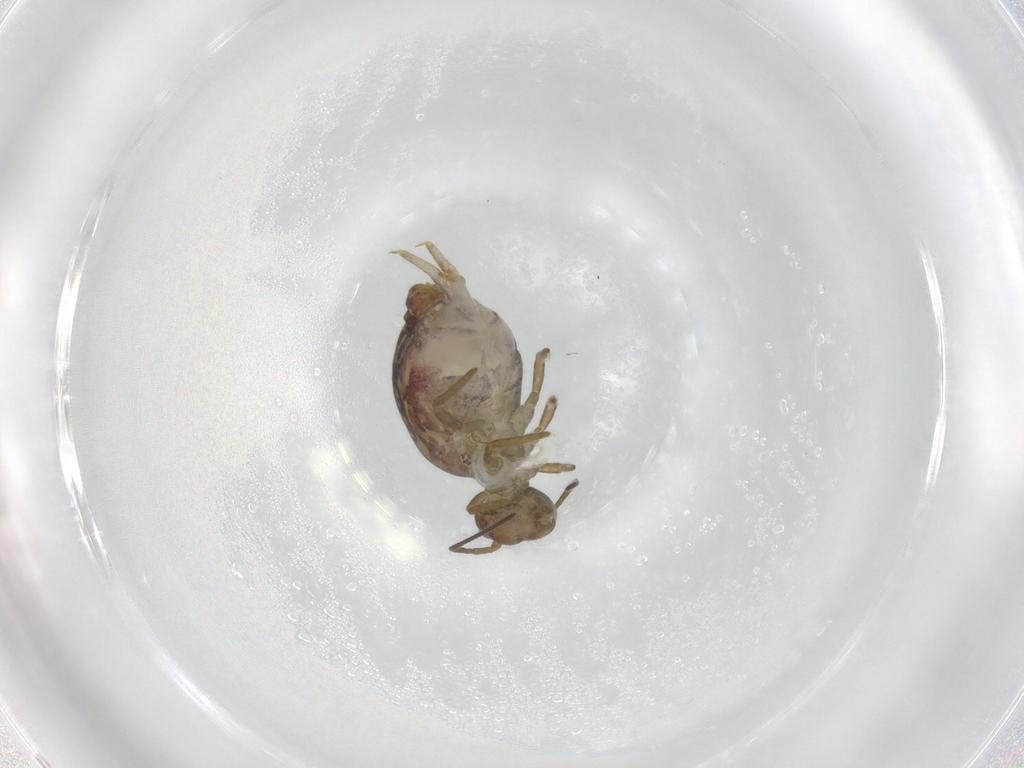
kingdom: Animalia
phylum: Arthropoda
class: Collembola
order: Symphypleona
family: Sminthuridae
